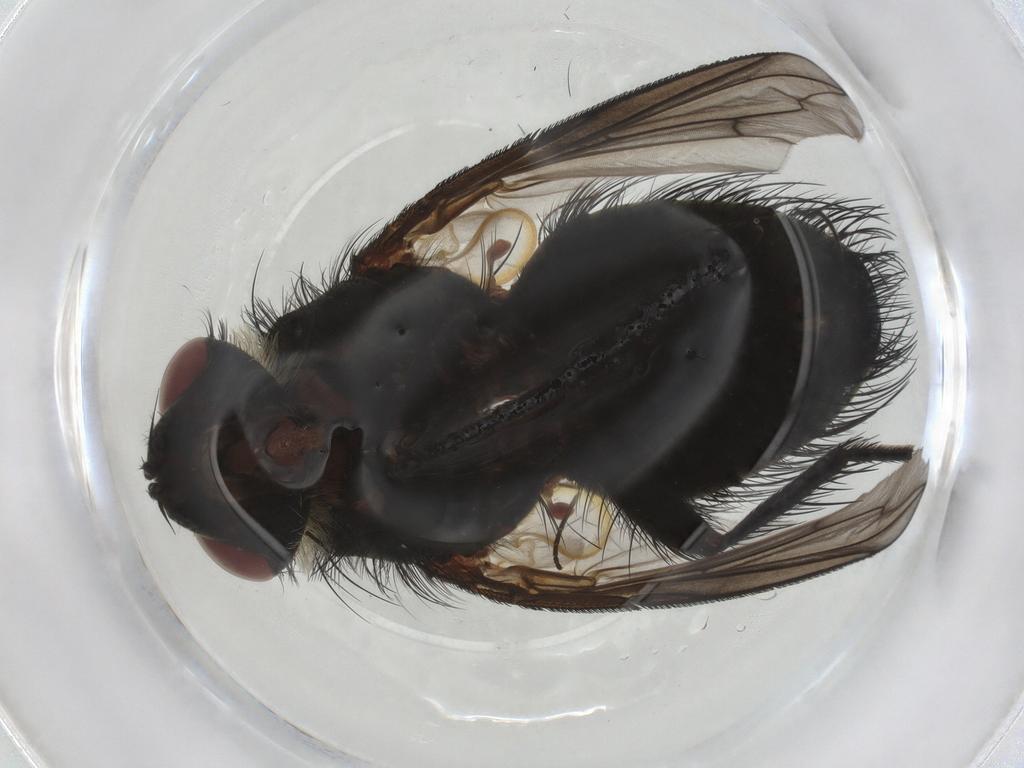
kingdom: Animalia
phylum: Arthropoda
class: Insecta
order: Diptera
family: Tachinidae
